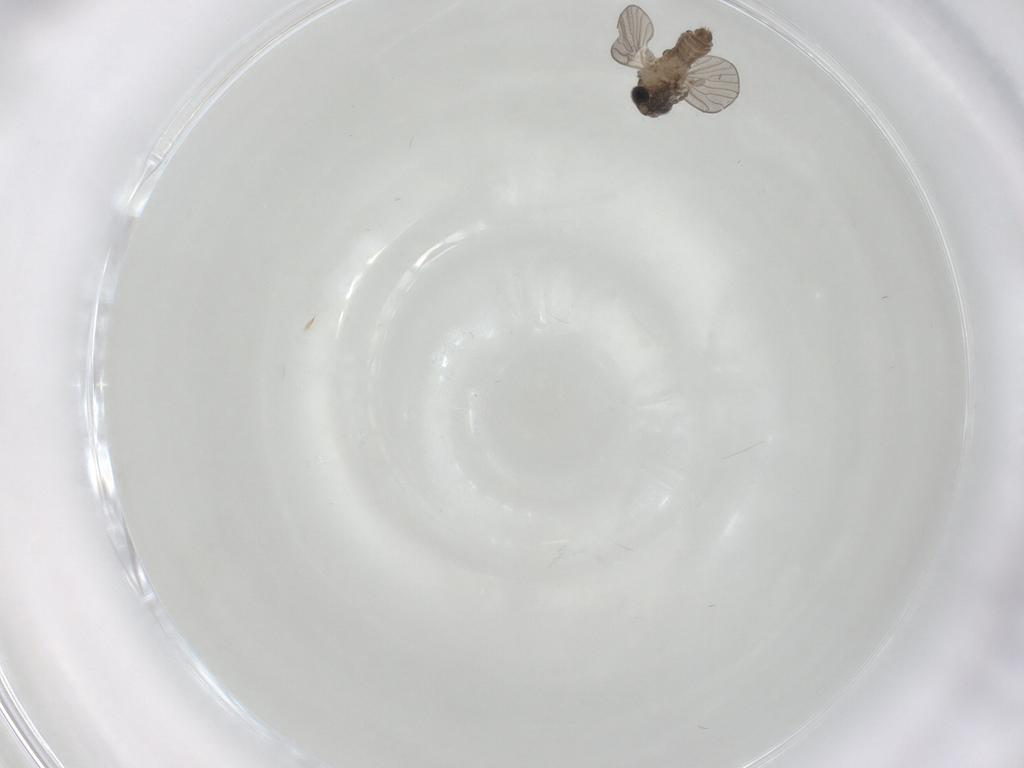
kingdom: Animalia
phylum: Arthropoda
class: Insecta
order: Diptera
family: Psychodidae
